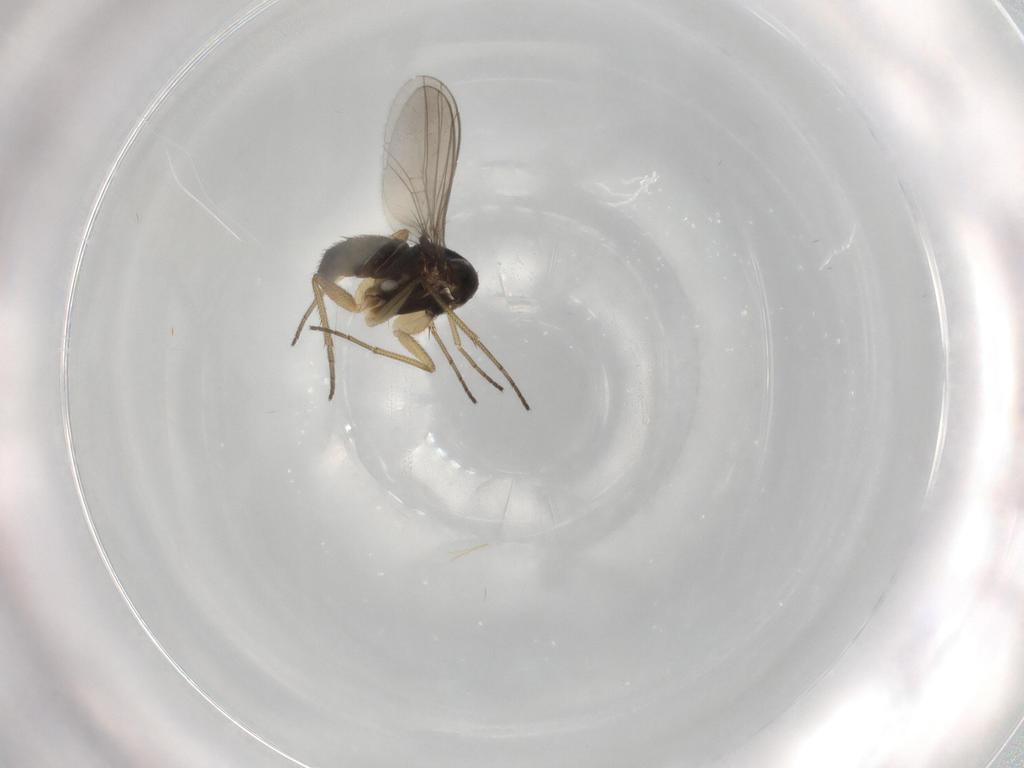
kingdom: Animalia
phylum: Arthropoda
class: Insecta
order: Diptera
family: Dolichopodidae
